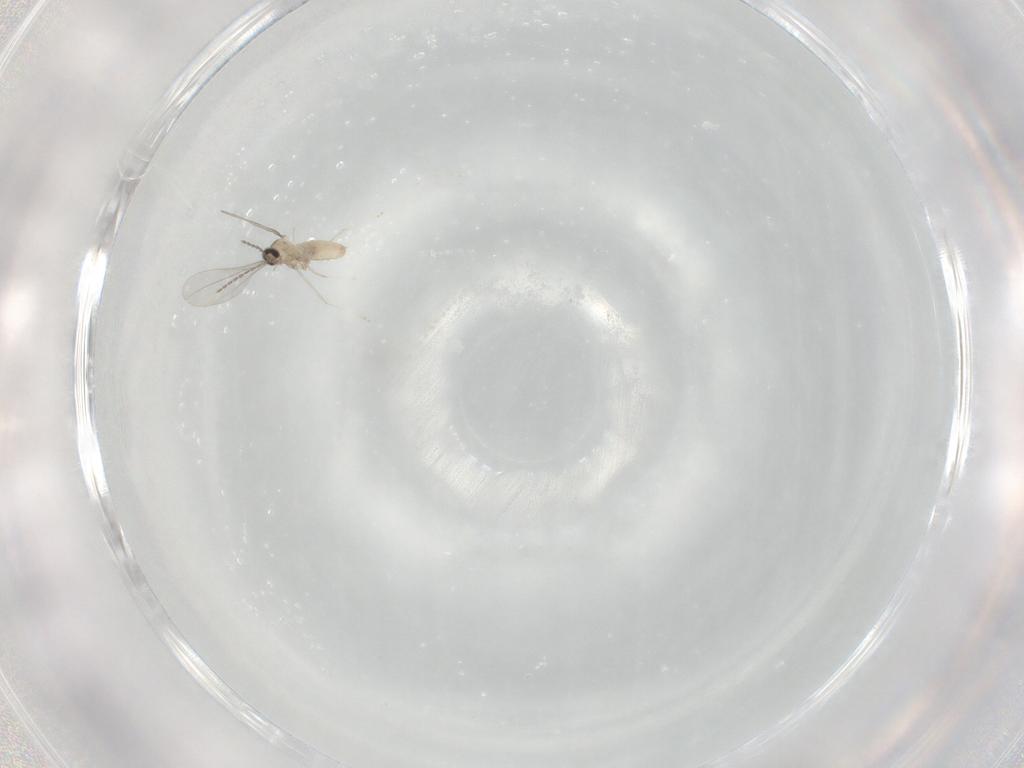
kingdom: Animalia
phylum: Arthropoda
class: Insecta
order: Diptera
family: Cecidomyiidae
